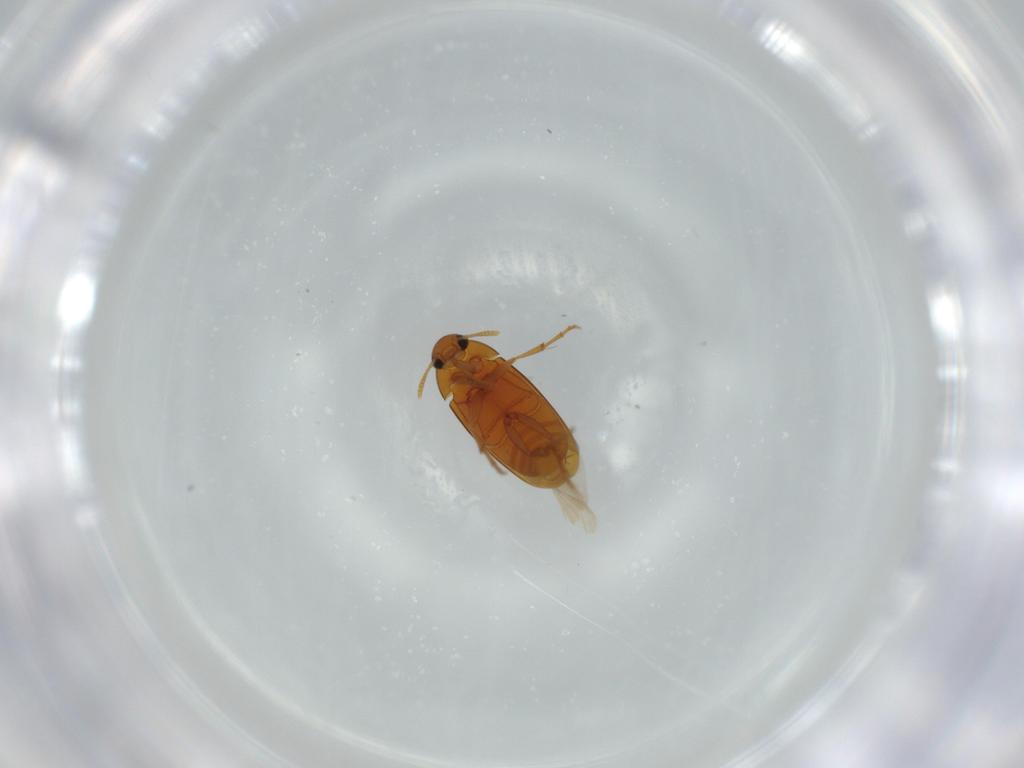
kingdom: Animalia
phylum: Arthropoda
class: Insecta
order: Coleoptera
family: Scraptiidae
